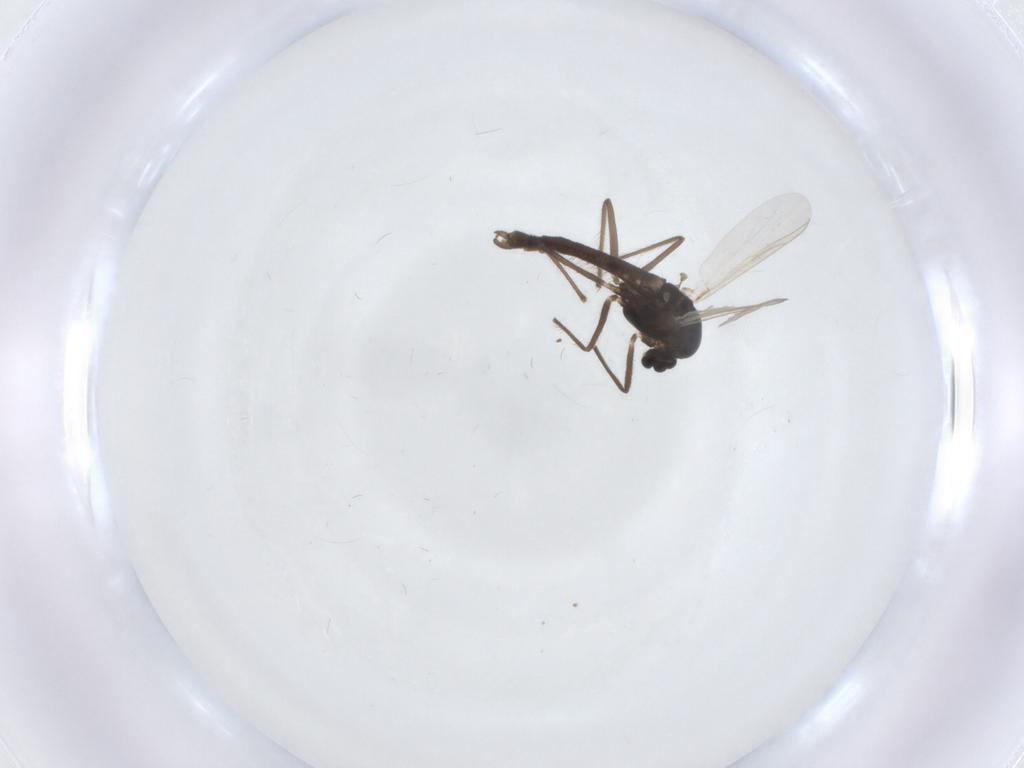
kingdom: Animalia
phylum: Arthropoda
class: Insecta
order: Diptera
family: Chironomidae
